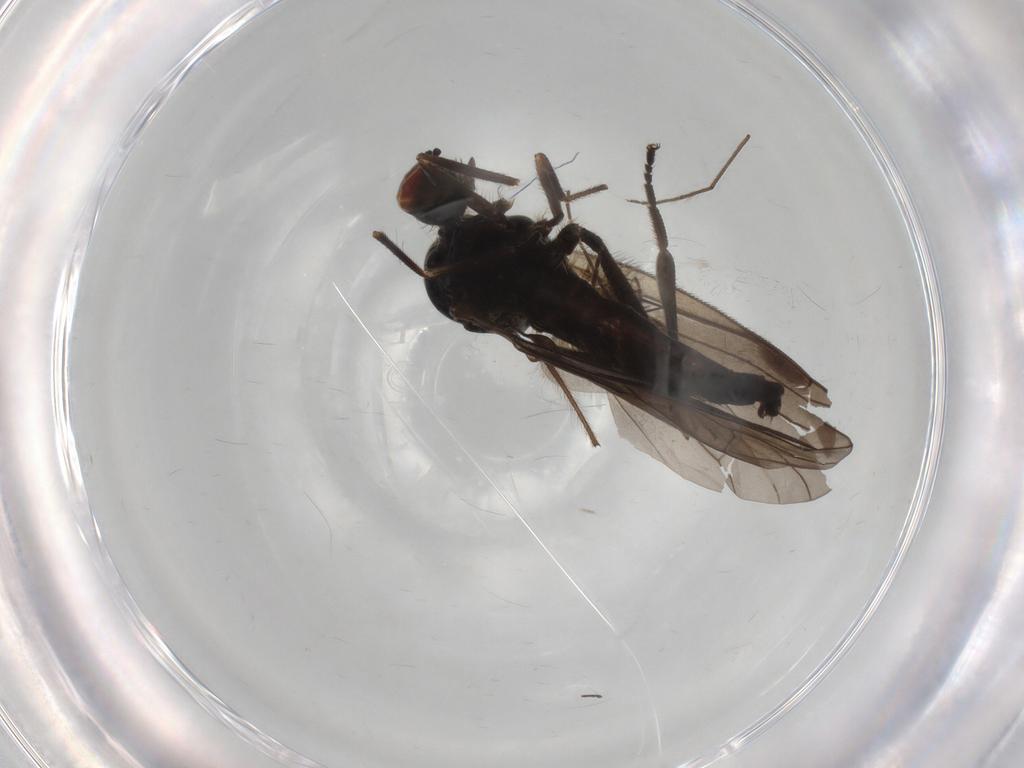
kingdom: Animalia
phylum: Arthropoda
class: Insecta
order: Diptera
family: Hybotidae
